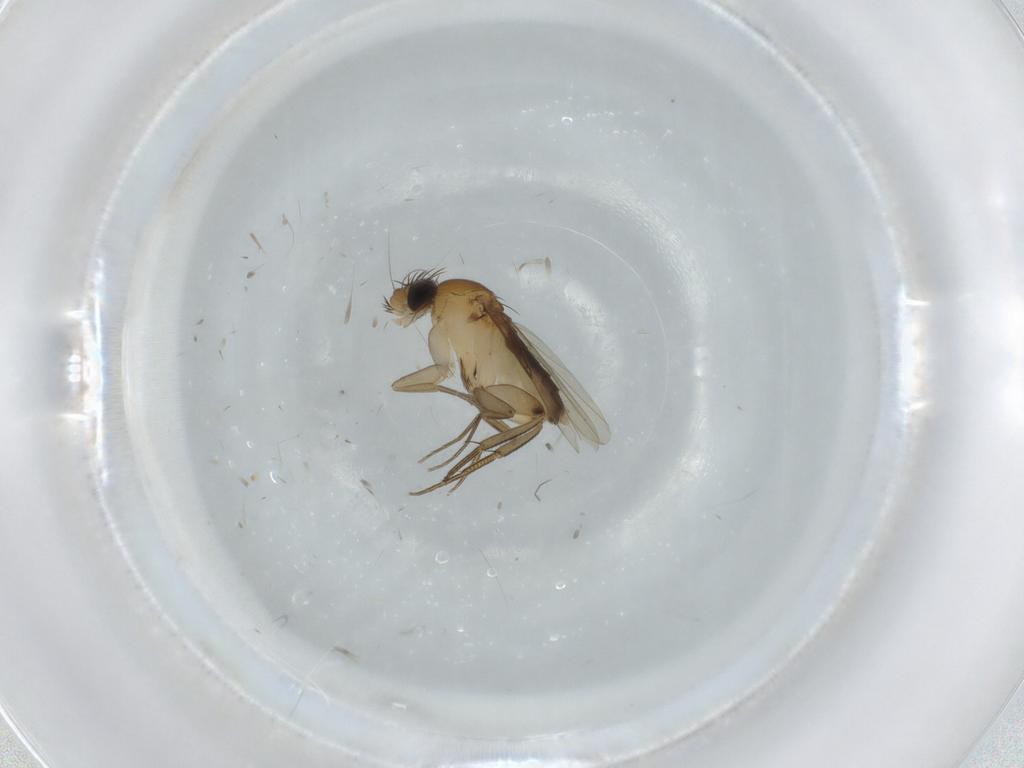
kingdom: Animalia
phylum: Arthropoda
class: Insecta
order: Diptera
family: Phoridae
